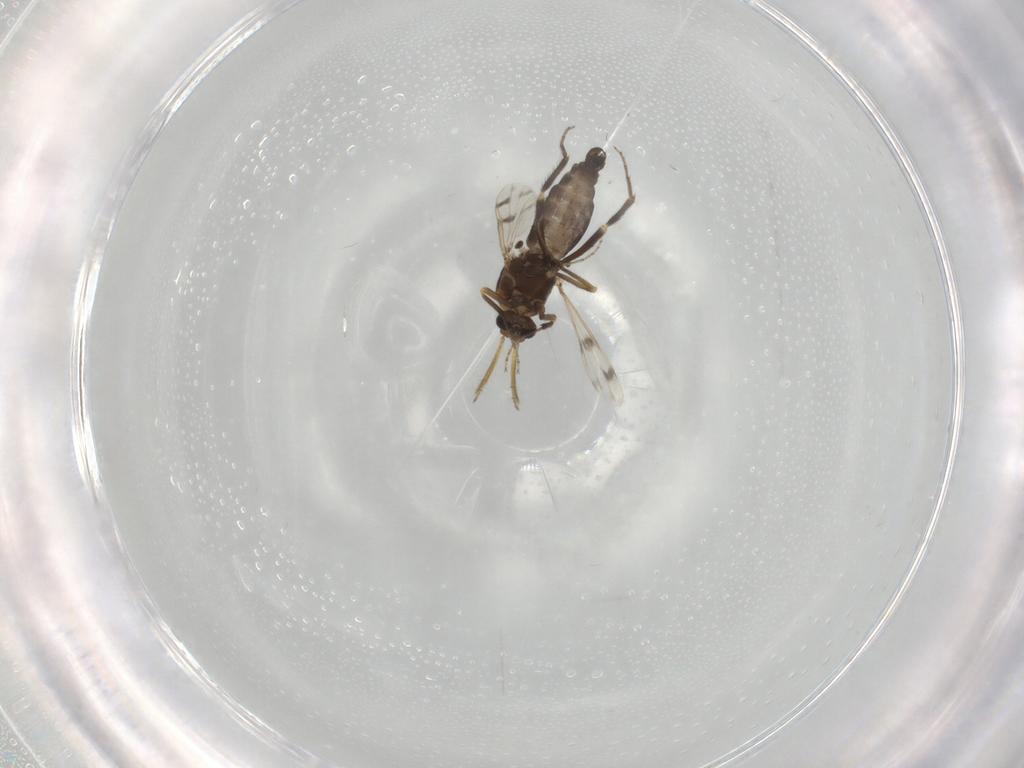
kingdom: Animalia
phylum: Arthropoda
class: Insecta
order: Diptera
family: Ceratopogonidae
